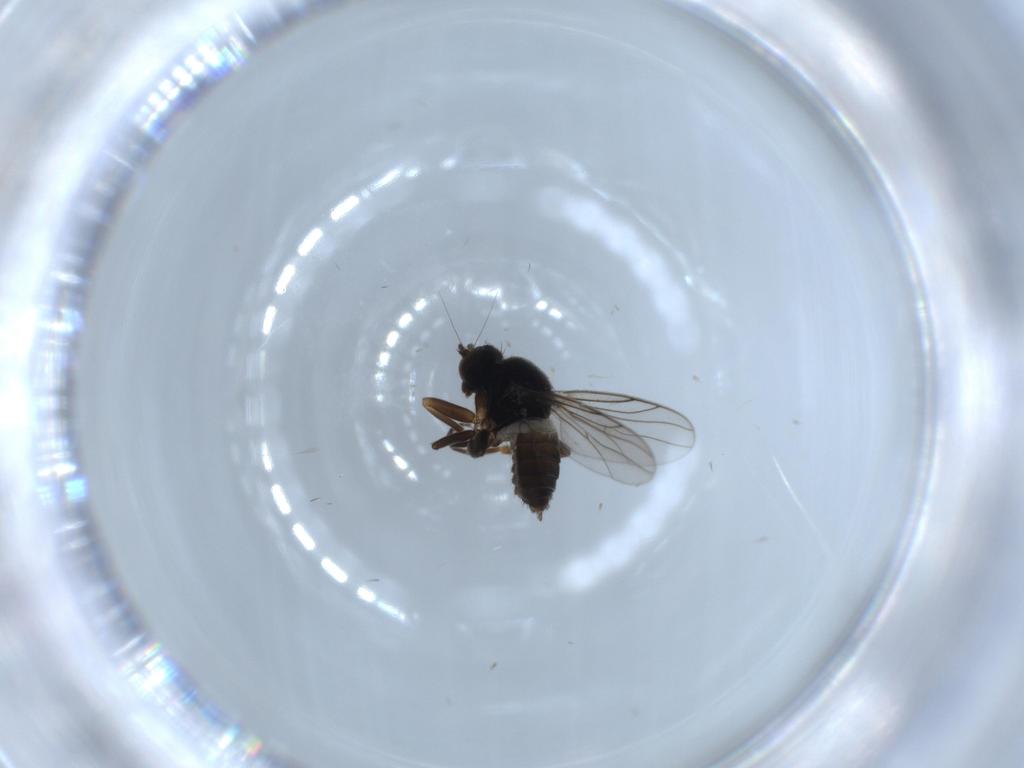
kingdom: Animalia
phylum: Arthropoda
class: Insecta
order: Diptera
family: Hybotidae
